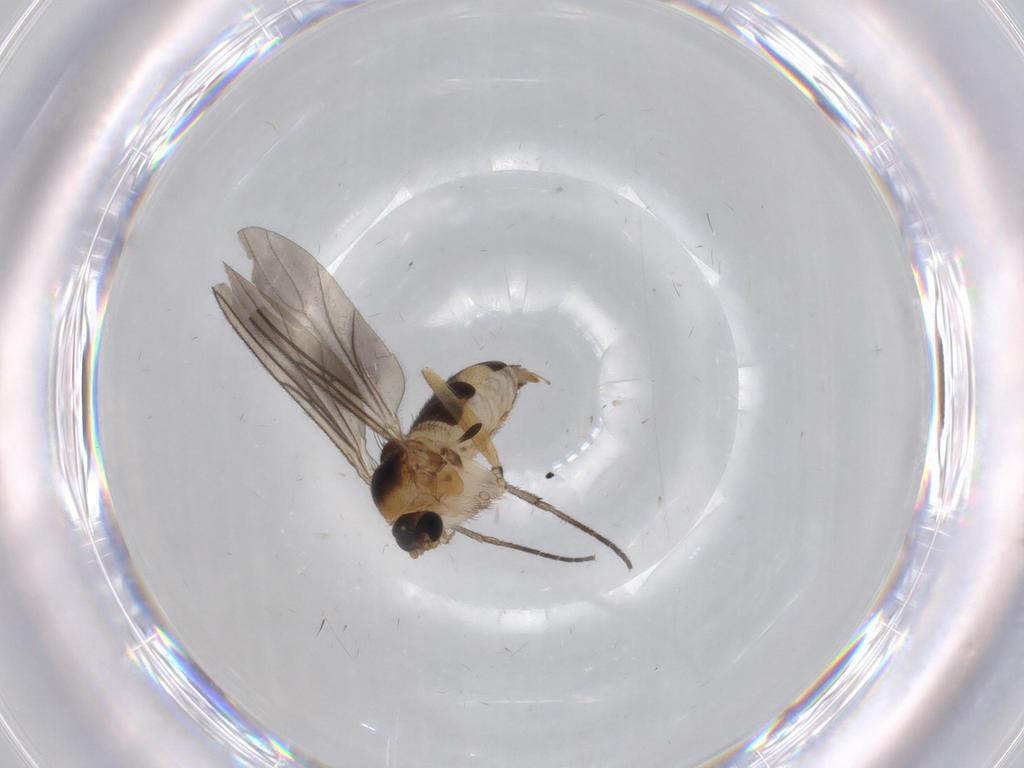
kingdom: Animalia
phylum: Arthropoda
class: Insecta
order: Diptera
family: Sciaridae
